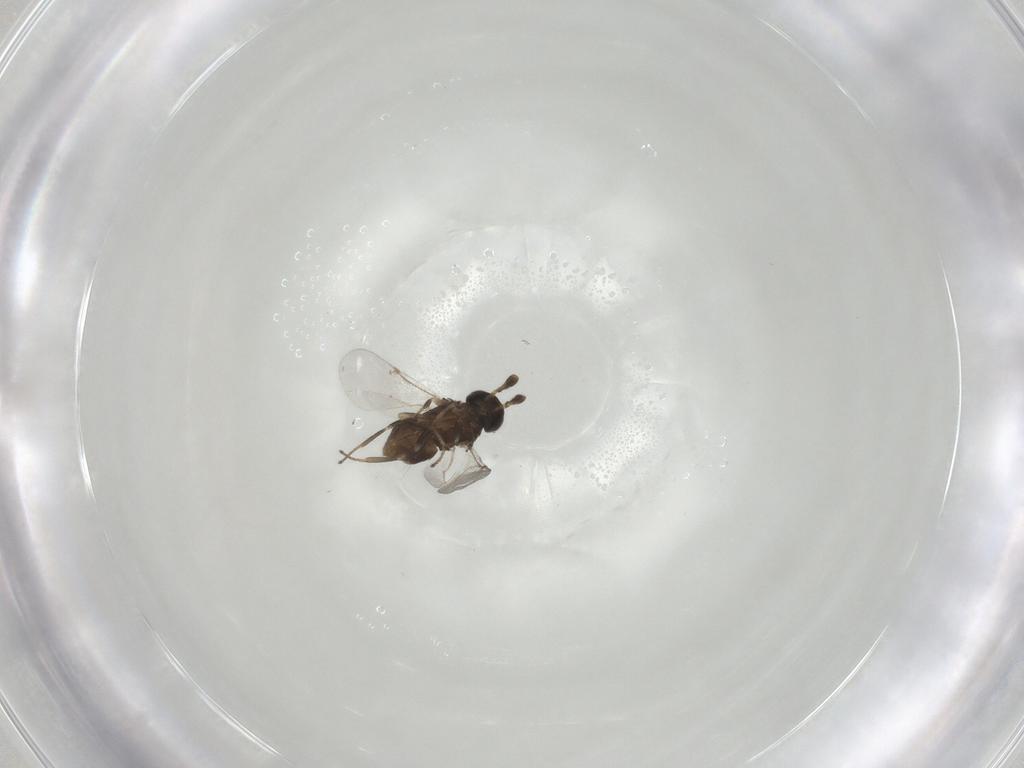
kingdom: Animalia
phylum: Arthropoda
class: Insecta
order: Hymenoptera
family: Encyrtidae
